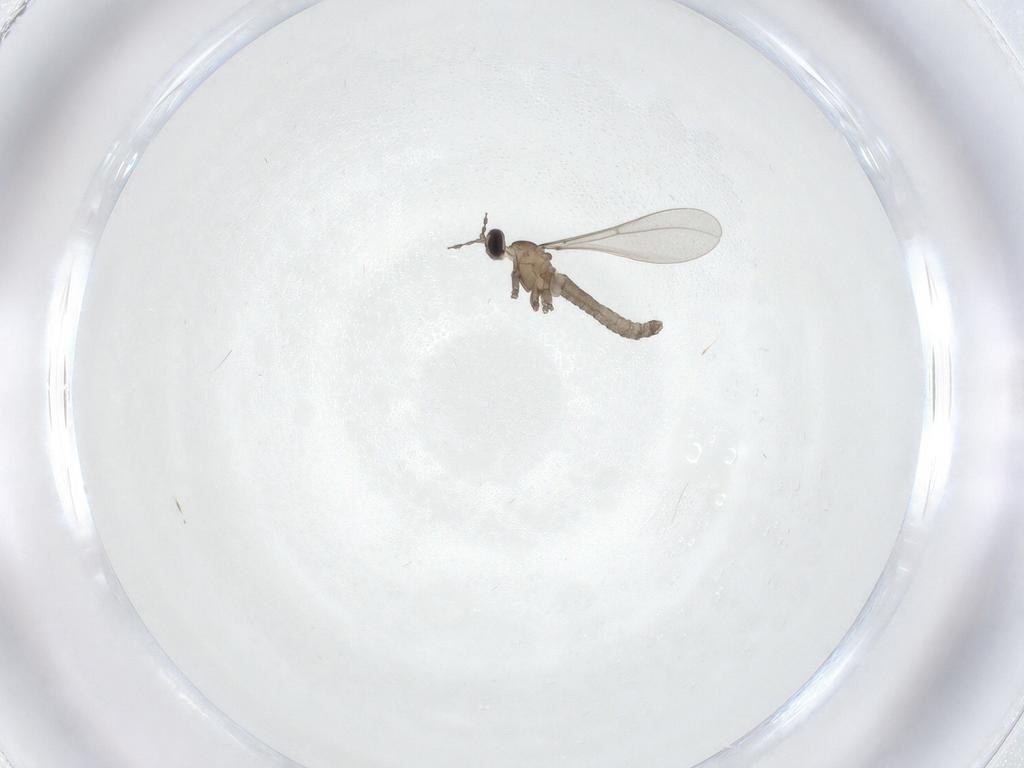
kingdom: Animalia
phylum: Arthropoda
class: Insecta
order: Diptera
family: Cecidomyiidae
